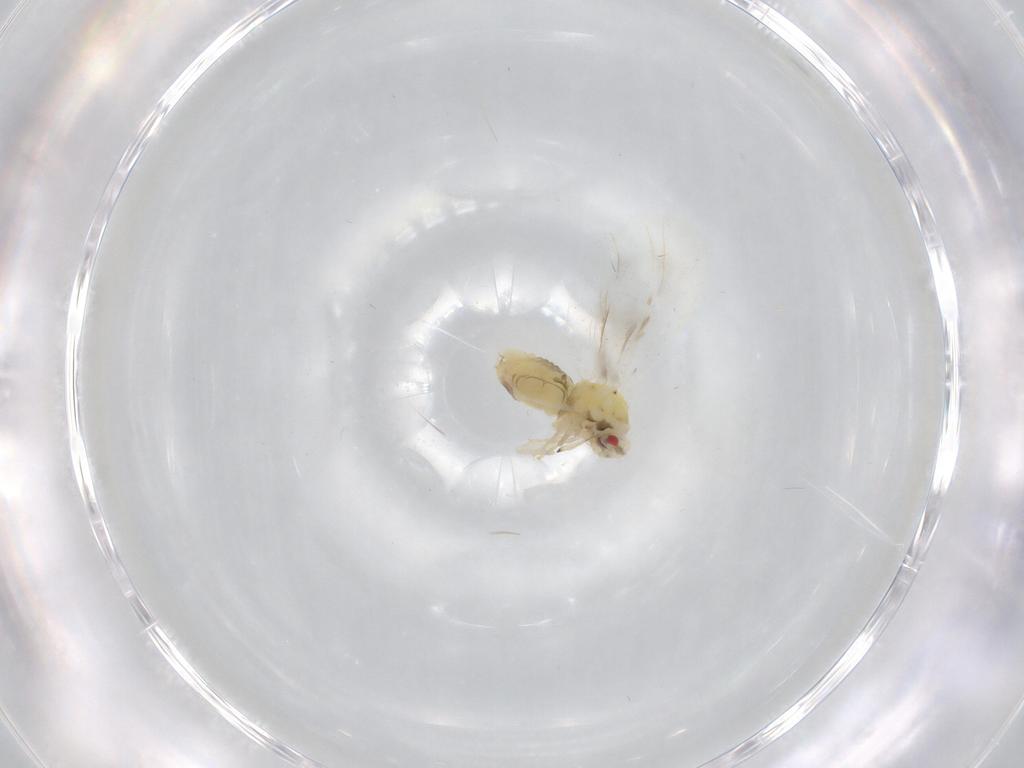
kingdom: Animalia
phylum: Arthropoda
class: Insecta
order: Hemiptera
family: Aleyrodidae
